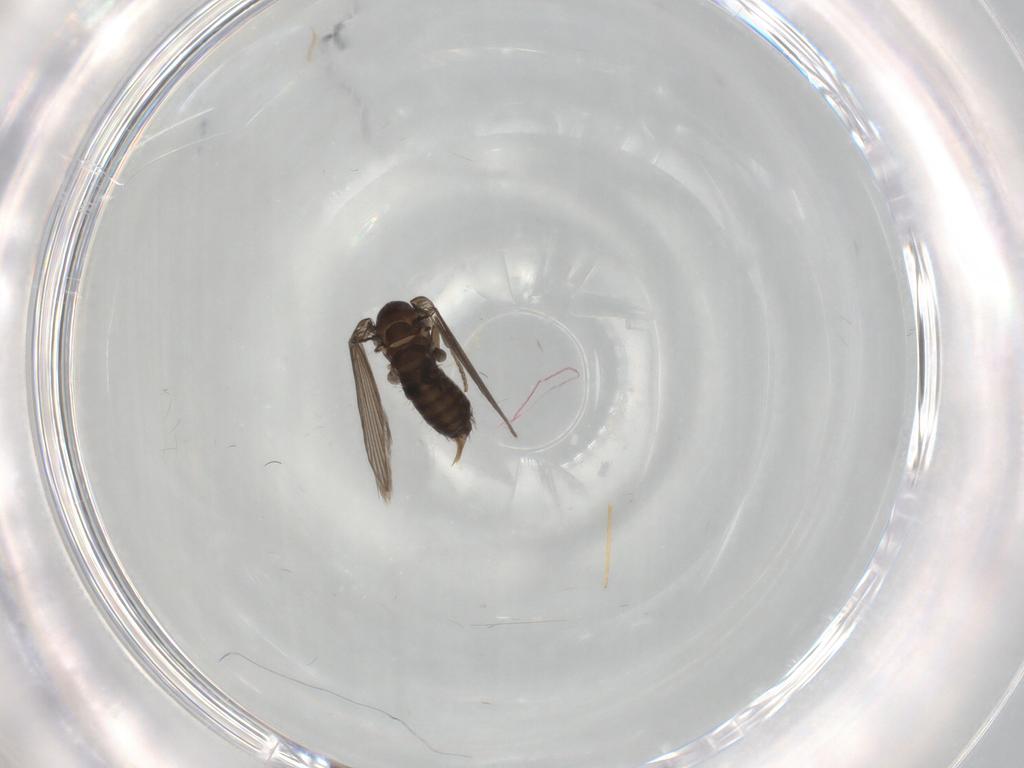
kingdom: Animalia
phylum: Arthropoda
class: Insecta
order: Diptera
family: Psychodidae
